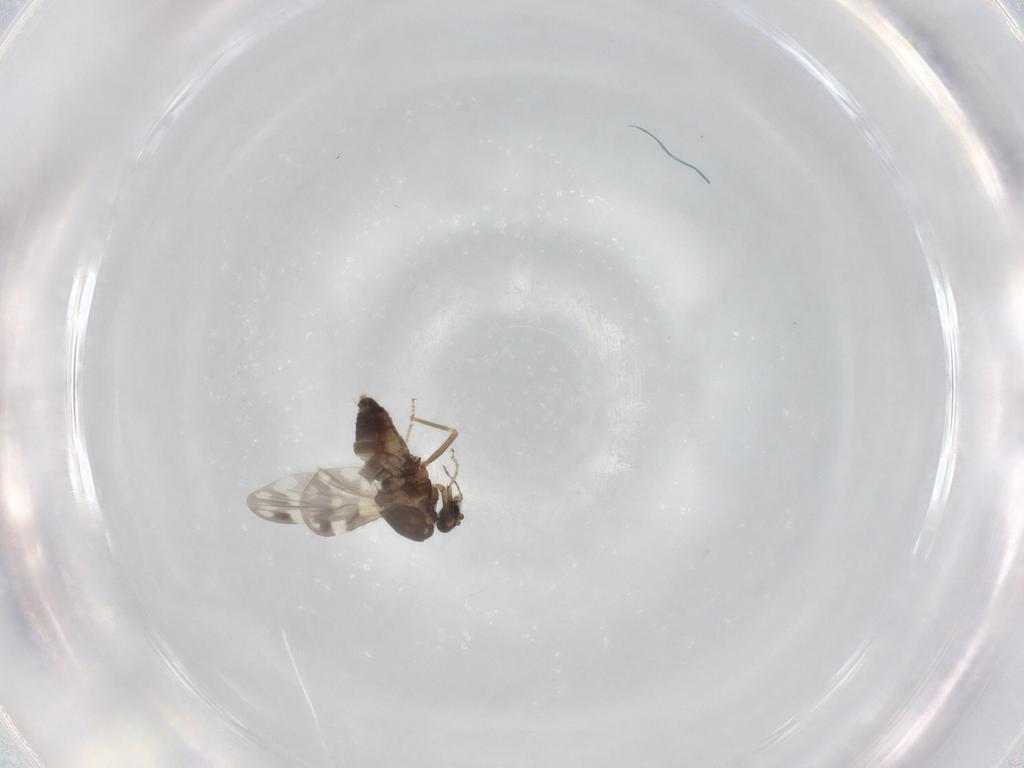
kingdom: Animalia
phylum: Arthropoda
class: Insecta
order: Diptera
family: Ceratopogonidae
